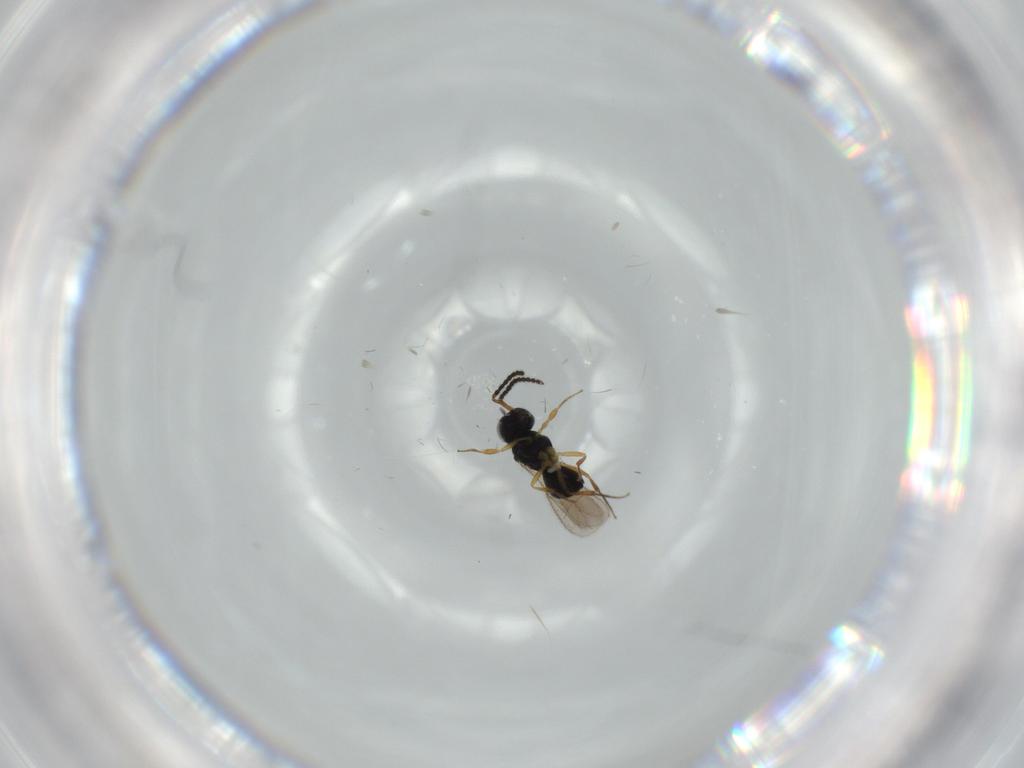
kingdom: Animalia
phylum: Arthropoda
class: Insecta
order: Hymenoptera
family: Scelionidae
